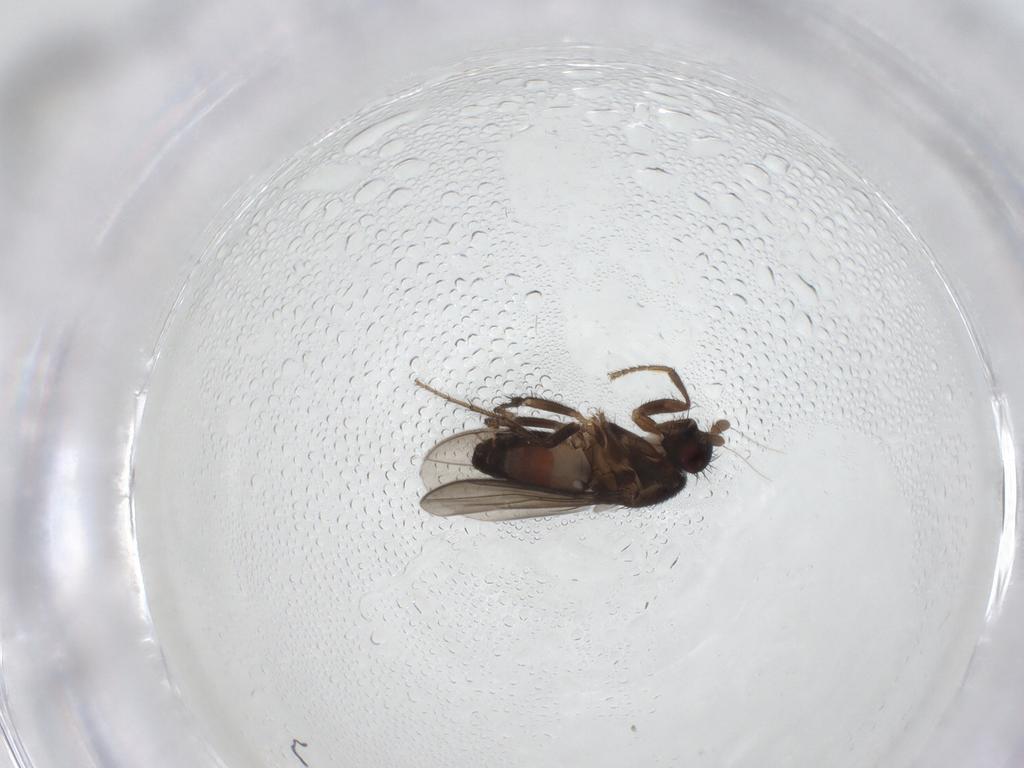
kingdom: Animalia
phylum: Arthropoda
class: Insecta
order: Diptera
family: Sphaeroceridae
